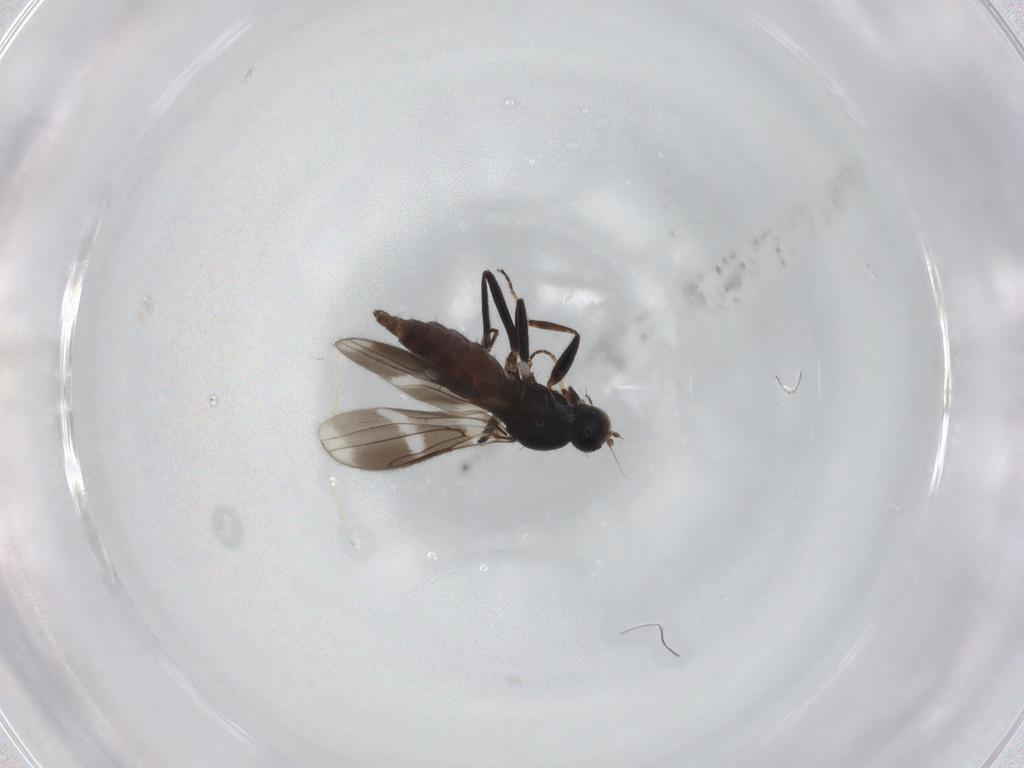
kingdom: Animalia
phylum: Arthropoda
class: Insecta
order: Diptera
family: Hybotidae
